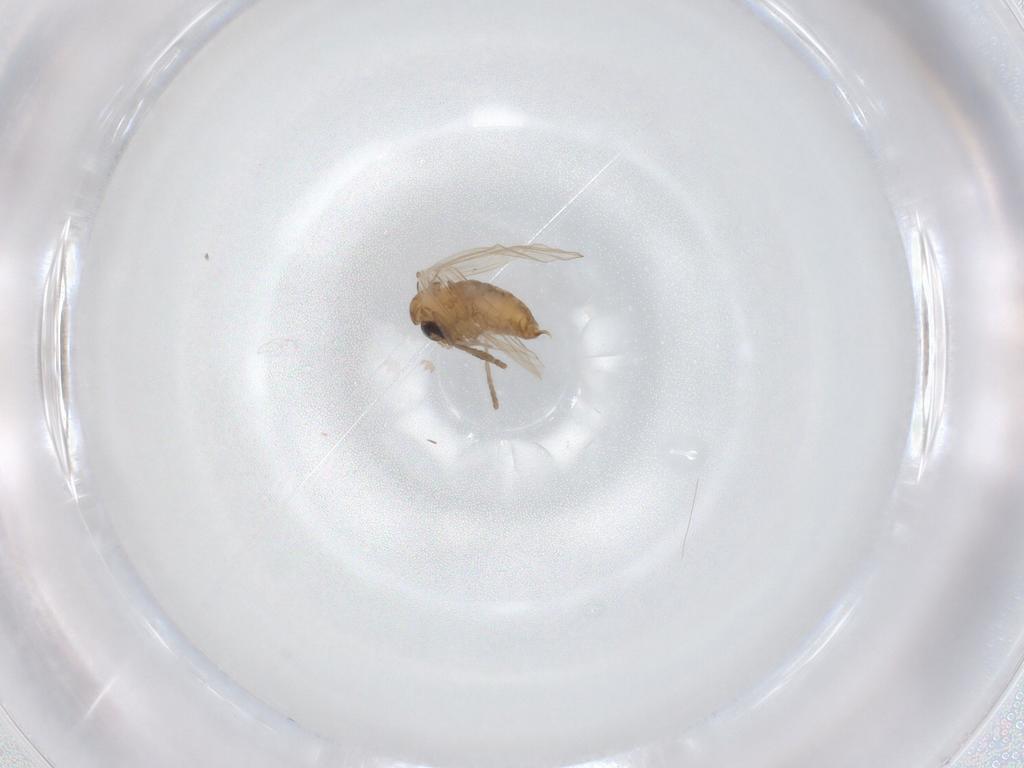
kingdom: Animalia
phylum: Arthropoda
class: Insecta
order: Diptera
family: Psychodidae
